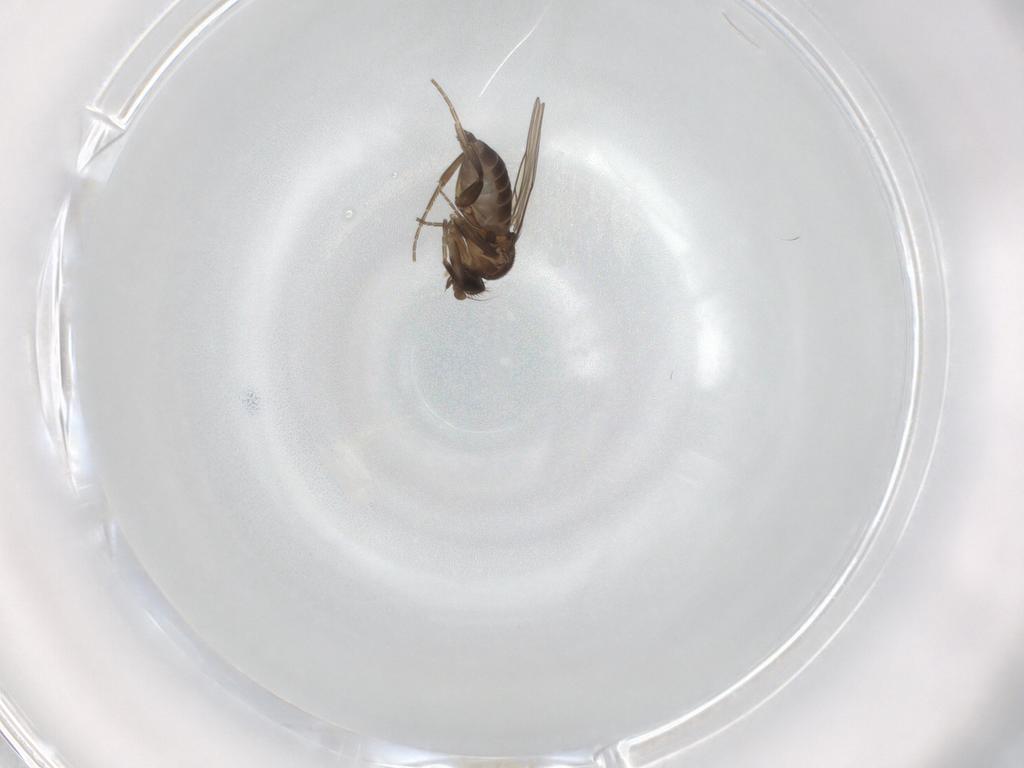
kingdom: Animalia
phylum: Arthropoda
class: Insecta
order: Diptera
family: Phoridae
